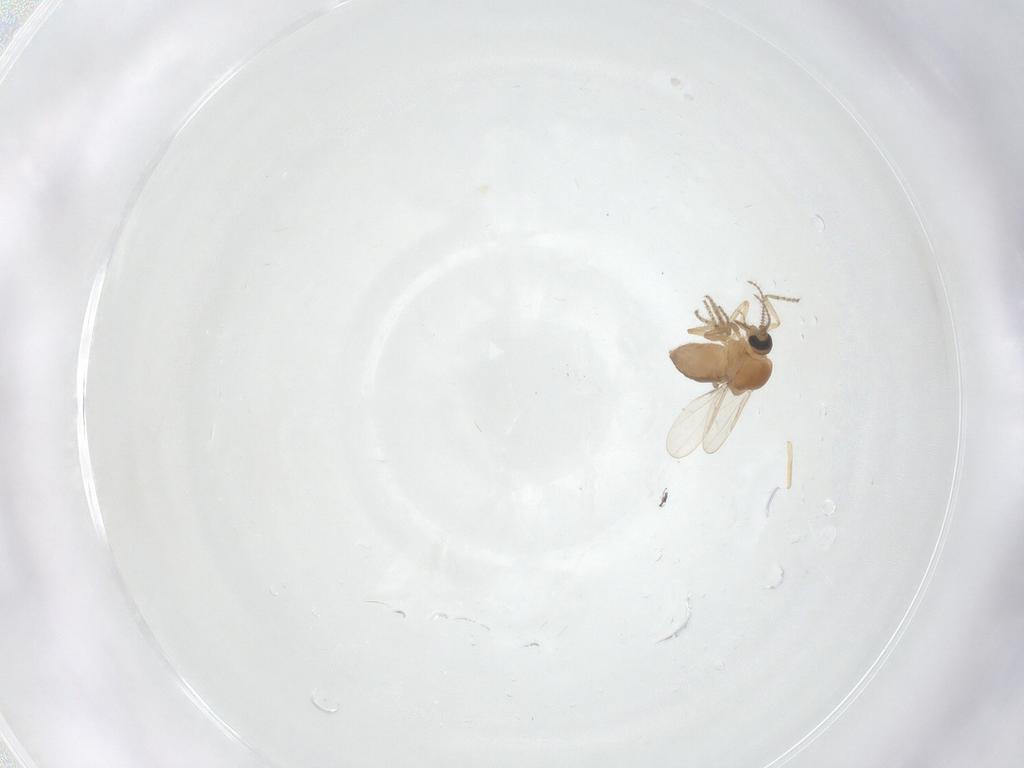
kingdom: Animalia
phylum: Arthropoda
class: Insecta
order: Diptera
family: Ceratopogonidae
